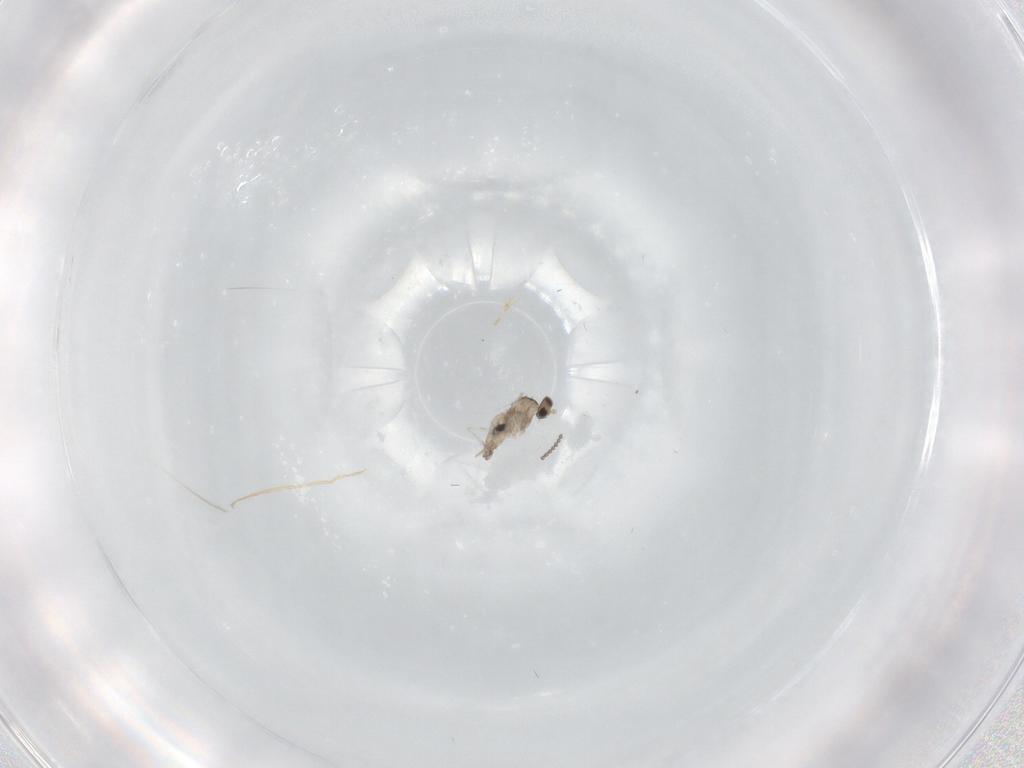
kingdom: Animalia
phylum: Arthropoda
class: Insecta
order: Diptera
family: Cecidomyiidae
